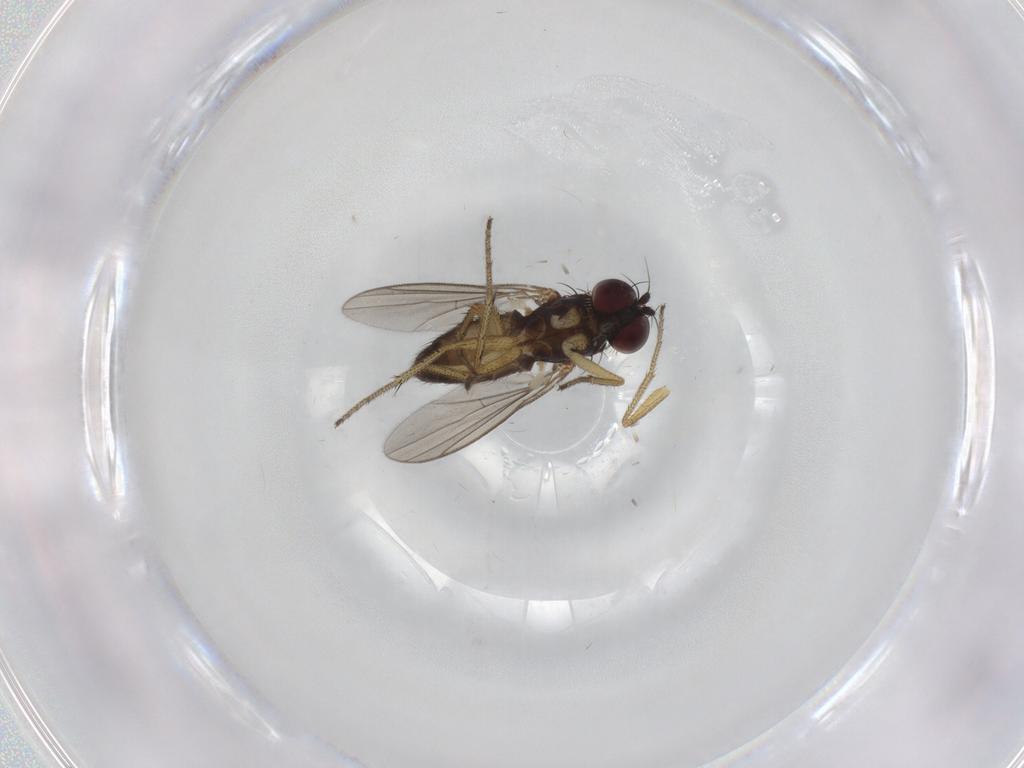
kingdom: Animalia
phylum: Arthropoda
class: Insecta
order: Diptera
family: Dolichopodidae
